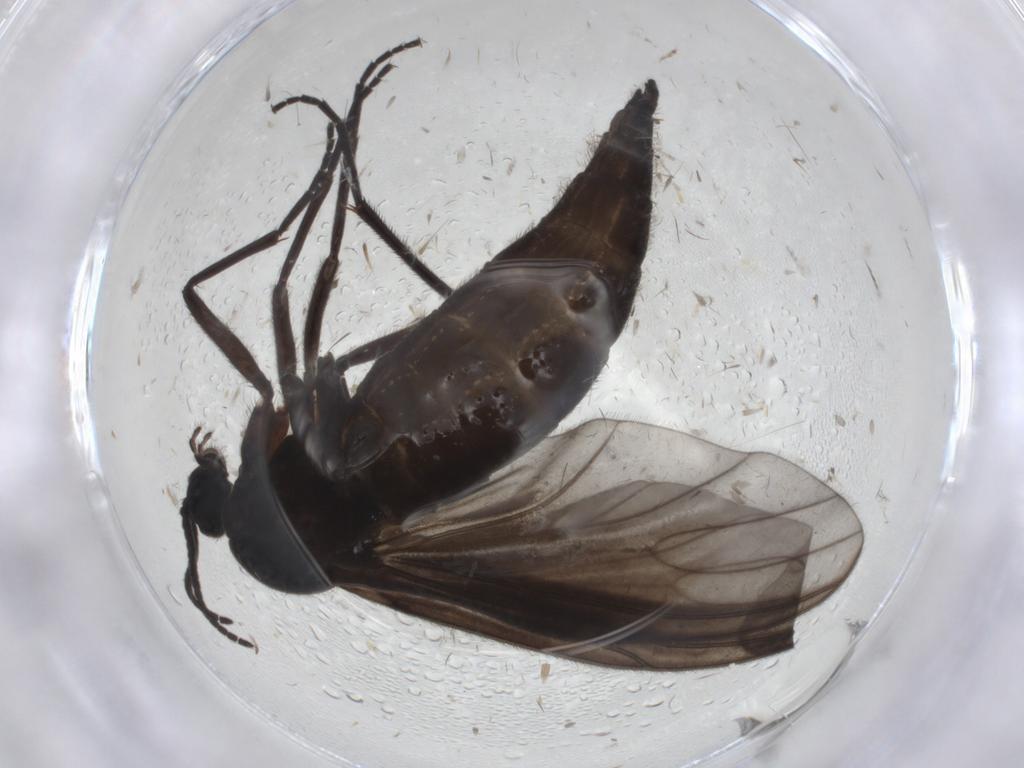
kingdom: Animalia
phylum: Arthropoda
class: Insecta
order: Diptera
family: Sciaridae
